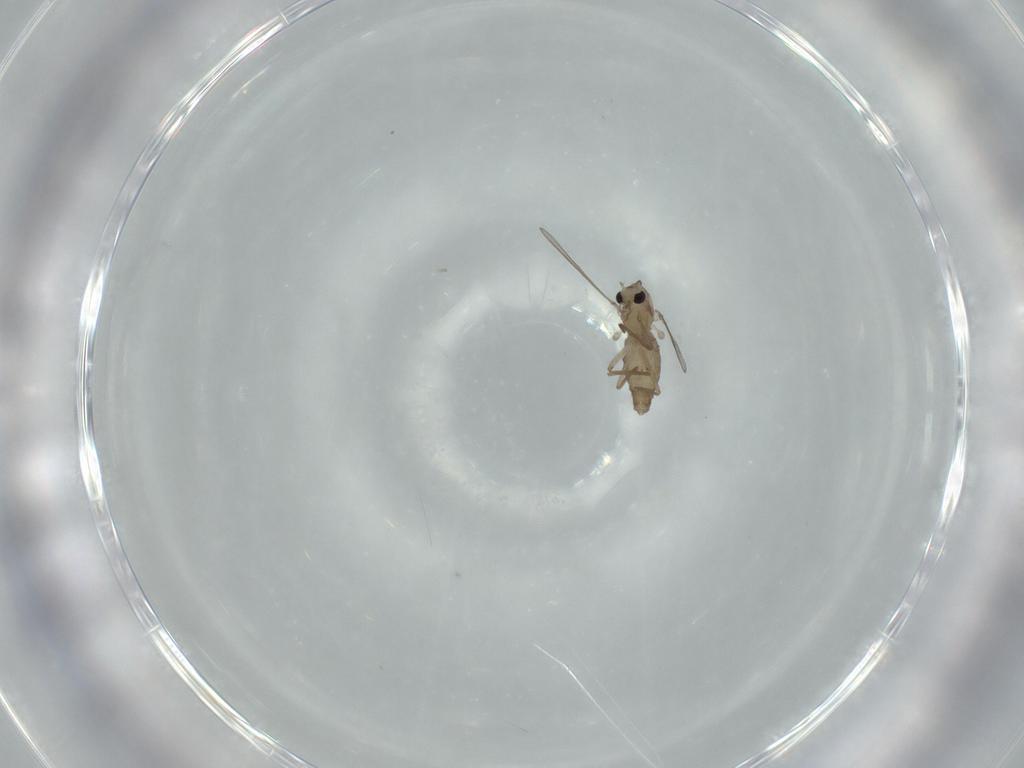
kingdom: Animalia
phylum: Arthropoda
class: Insecta
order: Diptera
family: Chironomidae
